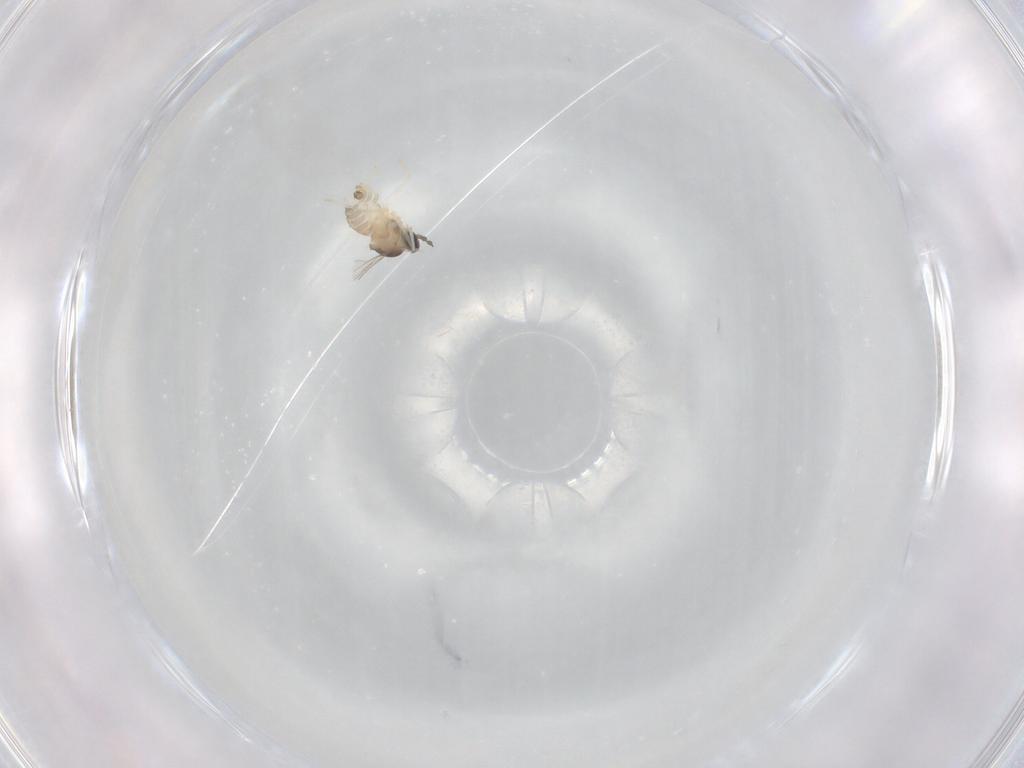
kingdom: Animalia
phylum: Arthropoda
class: Insecta
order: Diptera
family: Cecidomyiidae
